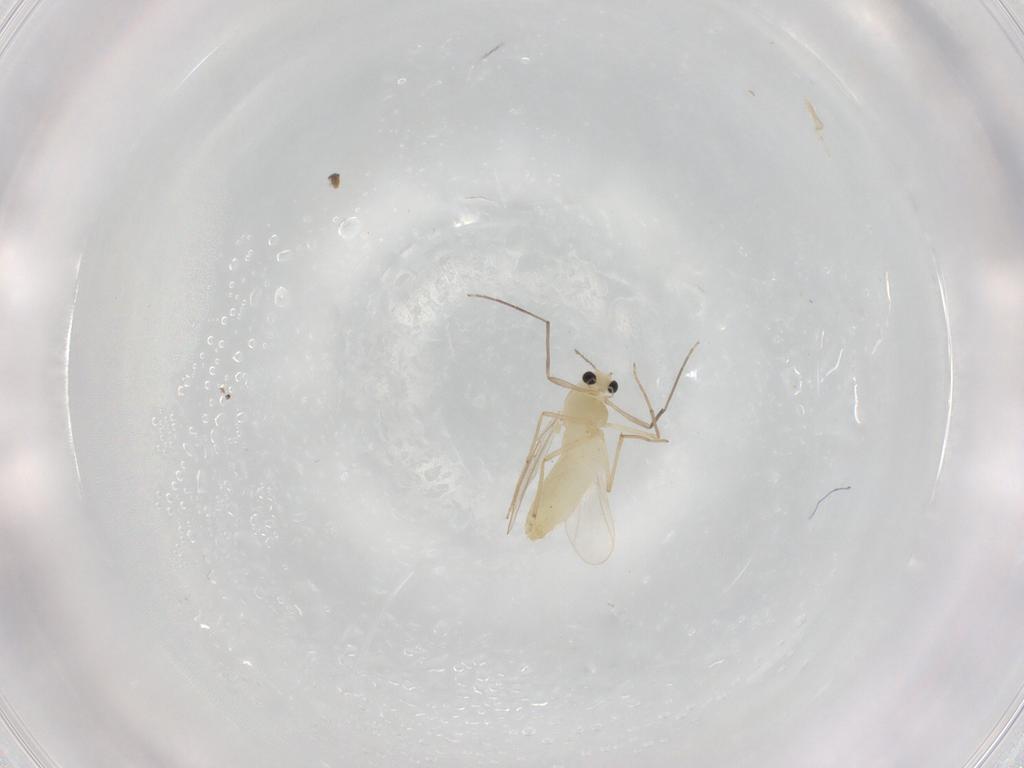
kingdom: Animalia
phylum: Arthropoda
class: Insecta
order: Diptera
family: Chironomidae
